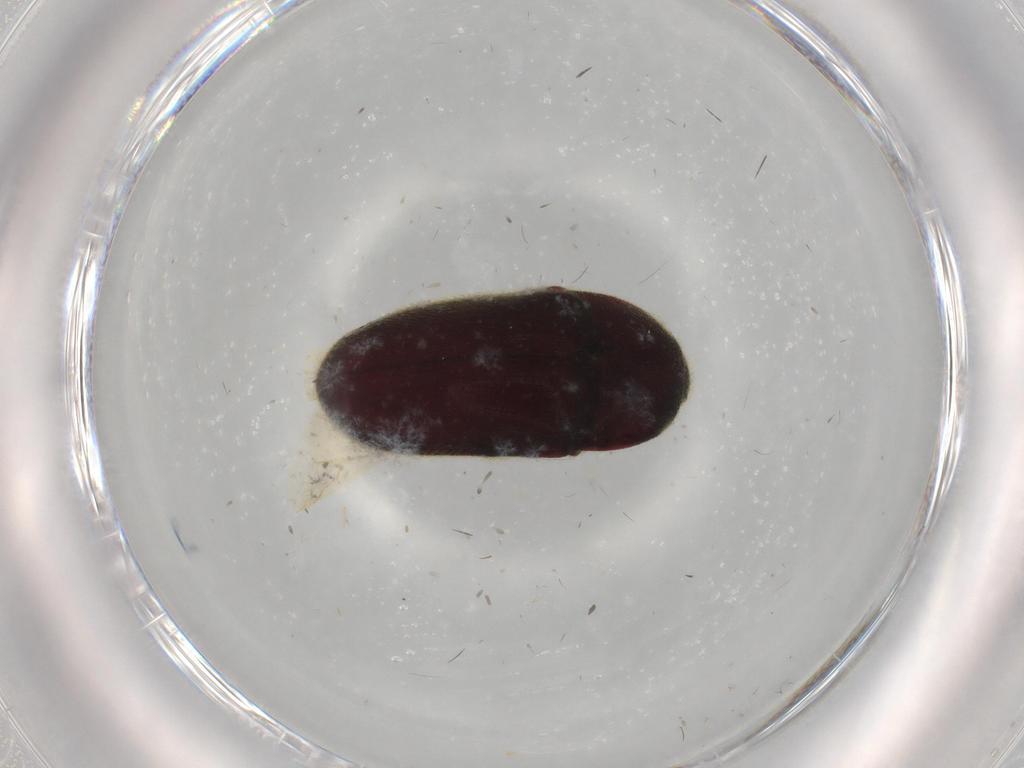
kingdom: Animalia
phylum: Arthropoda
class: Insecta
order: Coleoptera
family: Throscidae
